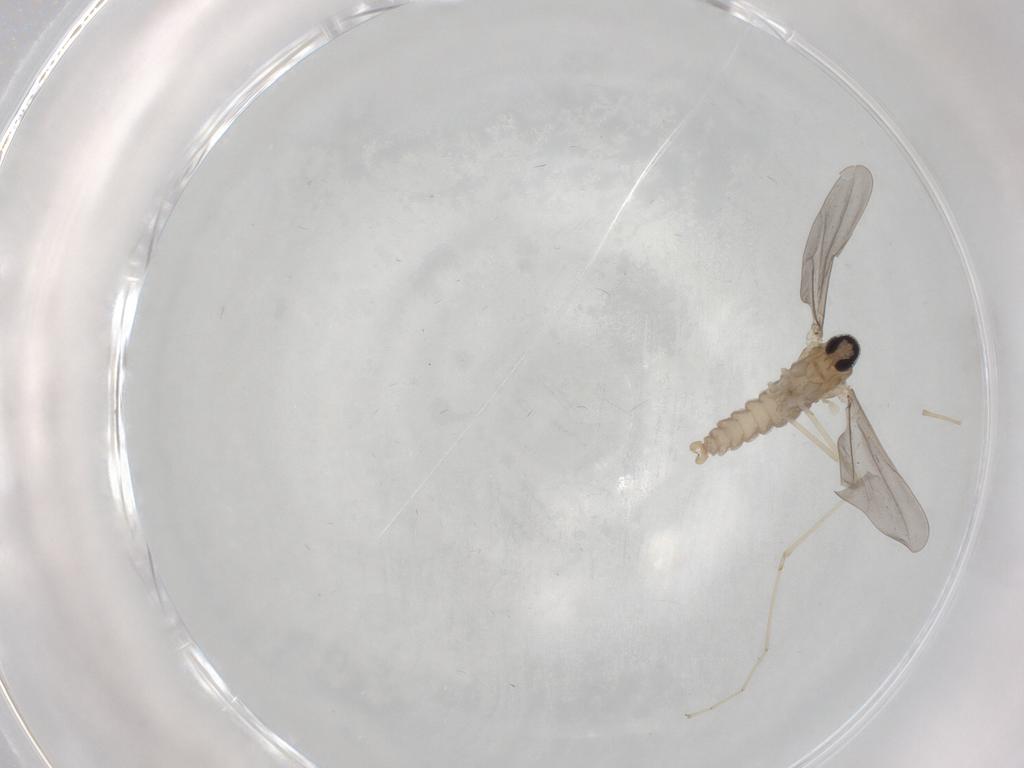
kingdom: Animalia
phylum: Arthropoda
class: Insecta
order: Diptera
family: Cecidomyiidae
